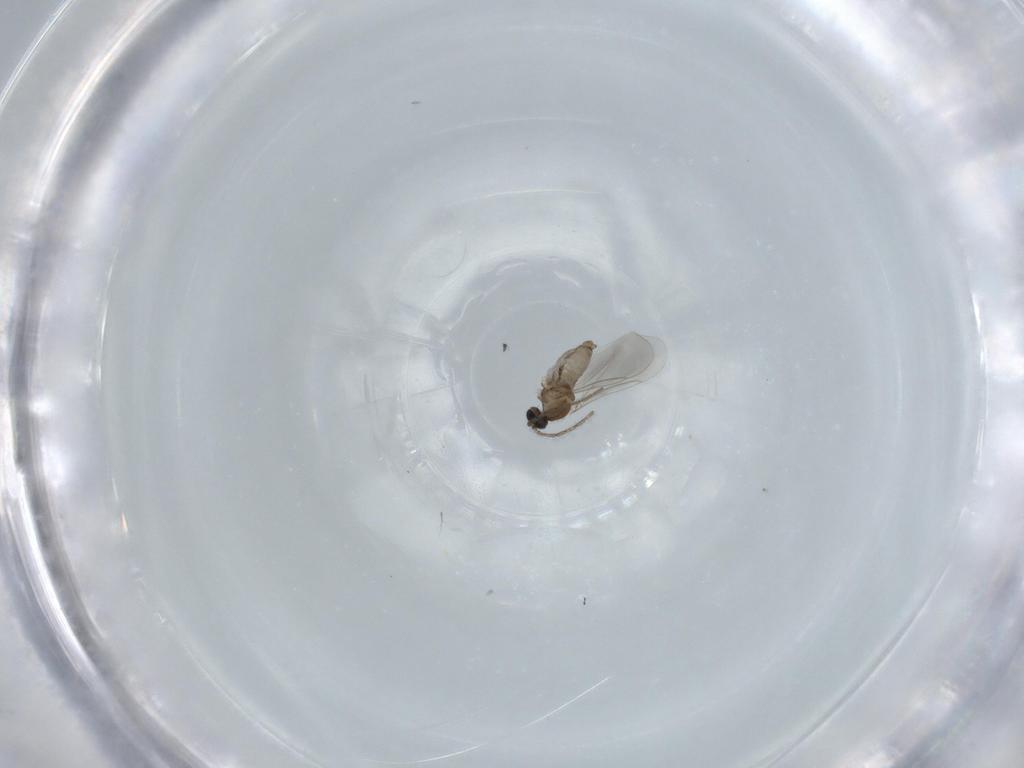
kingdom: Animalia
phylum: Arthropoda
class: Insecta
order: Diptera
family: Cecidomyiidae
